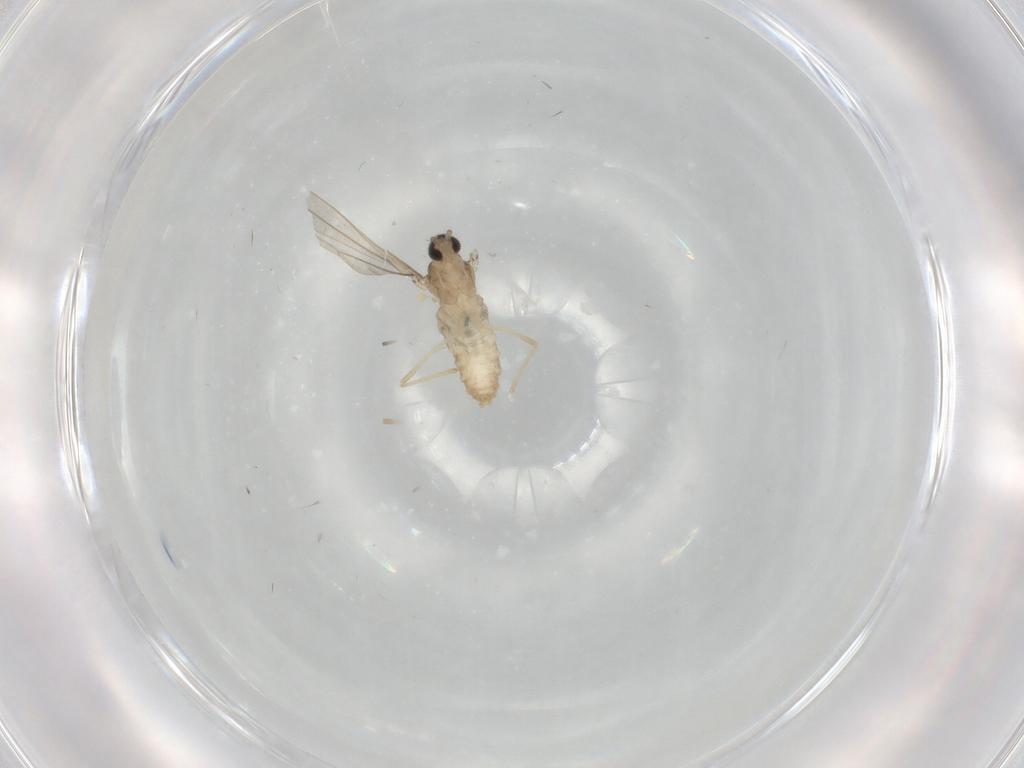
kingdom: Animalia
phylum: Arthropoda
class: Insecta
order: Diptera
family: Cecidomyiidae
